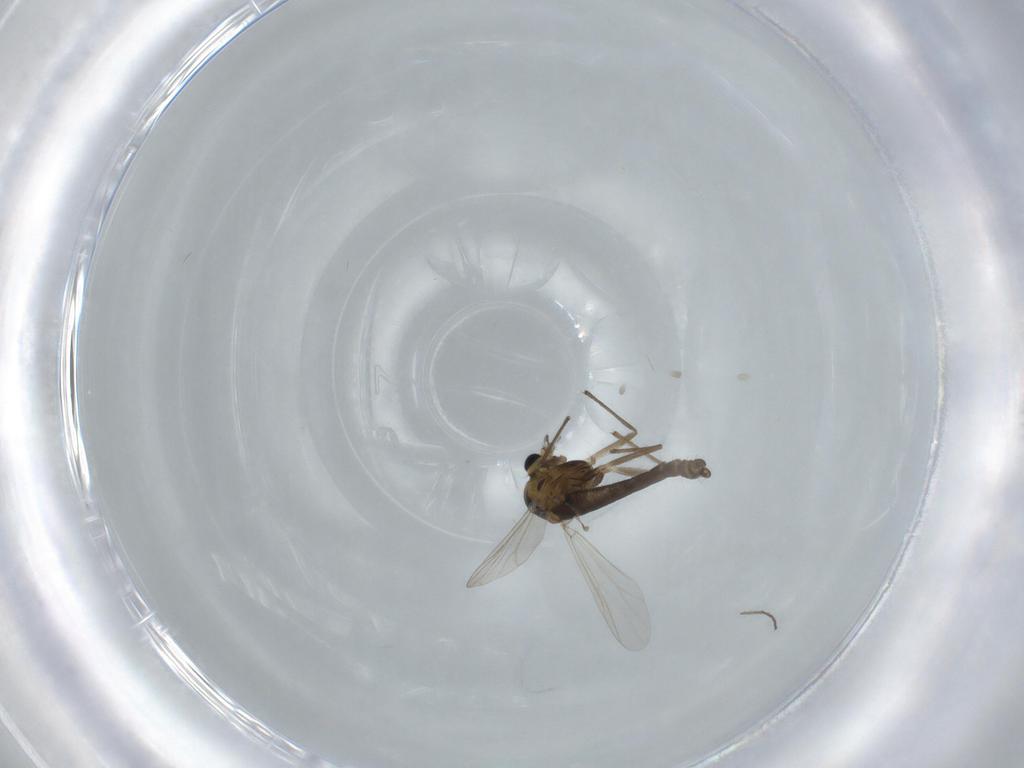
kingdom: Animalia
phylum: Arthropoda
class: Insecta
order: Diptera
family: Chironomidae
